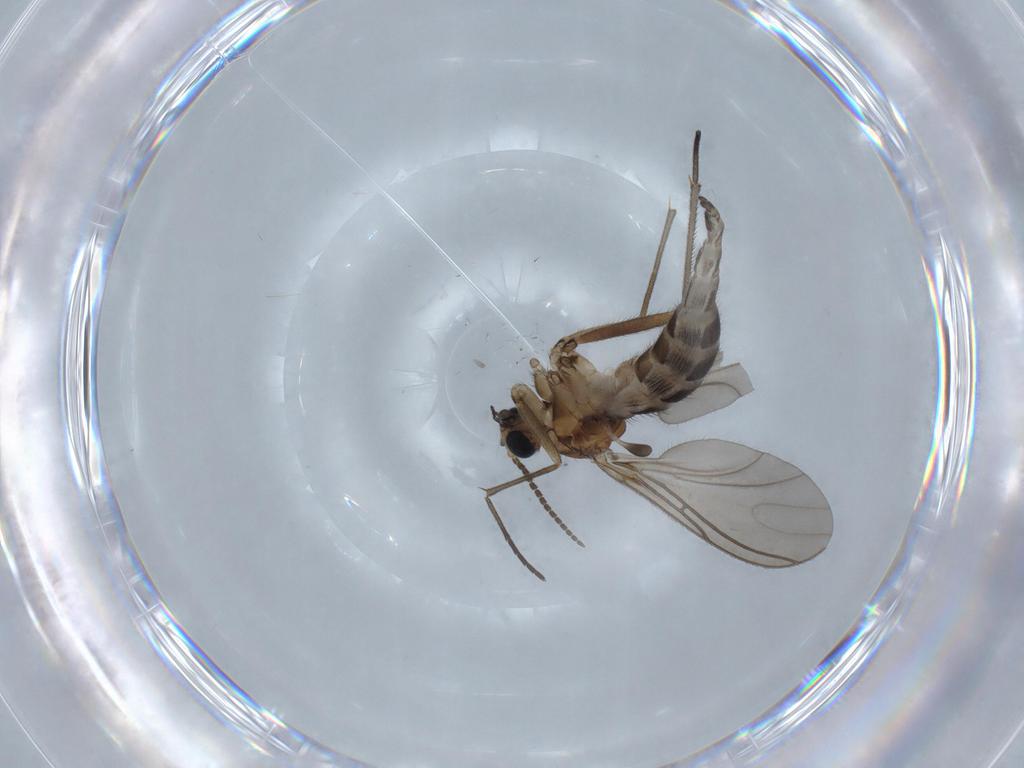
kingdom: Animalia
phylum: Arthropoda
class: Insecta
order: Diptera
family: Sciaridae
